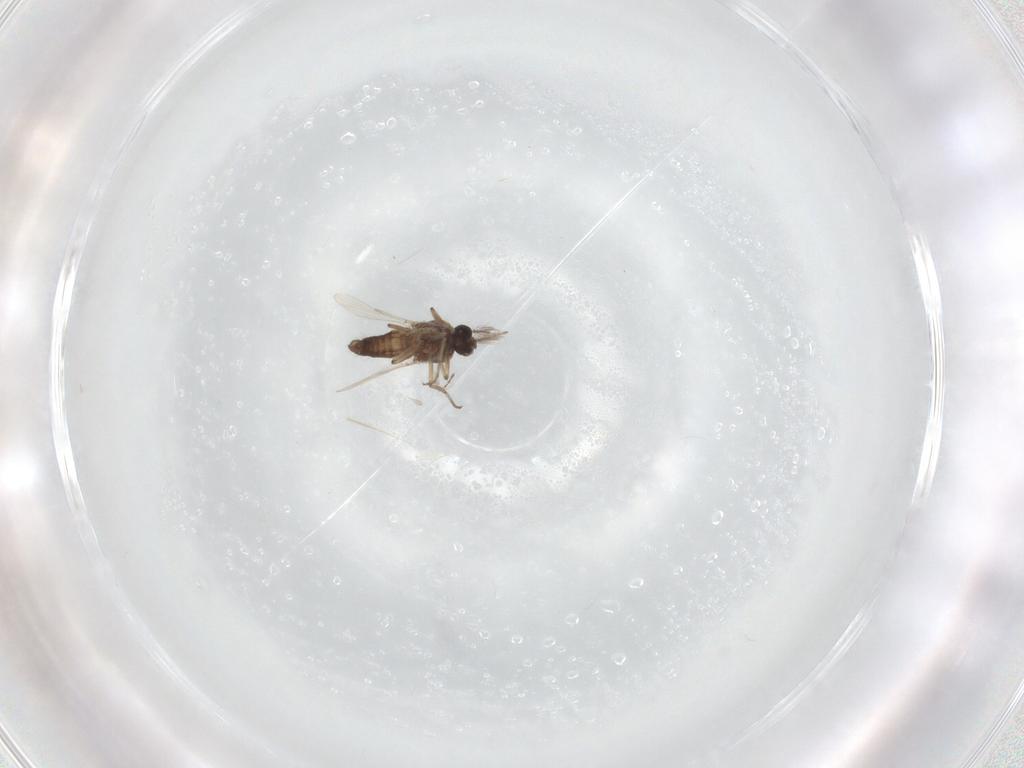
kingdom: Animalia
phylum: Arthropoda
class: Insecta
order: Diptera
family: Ceratopogonidae
